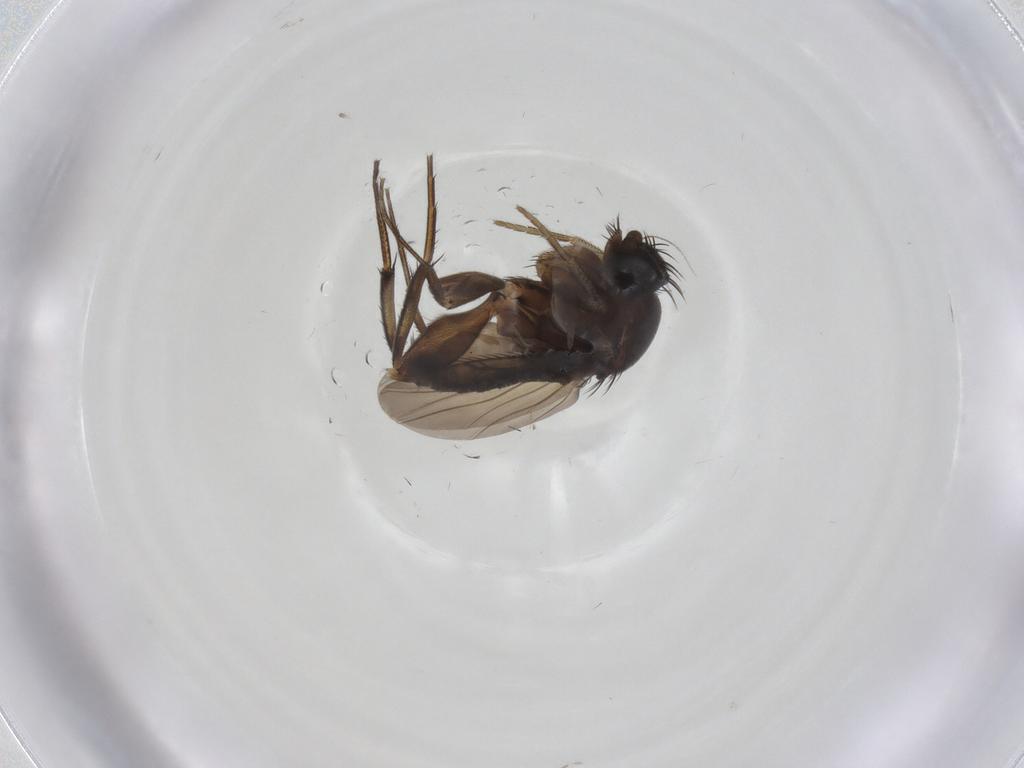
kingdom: Animalia
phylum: Arthropoda
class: Insecta
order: Diptera
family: Phoridae
